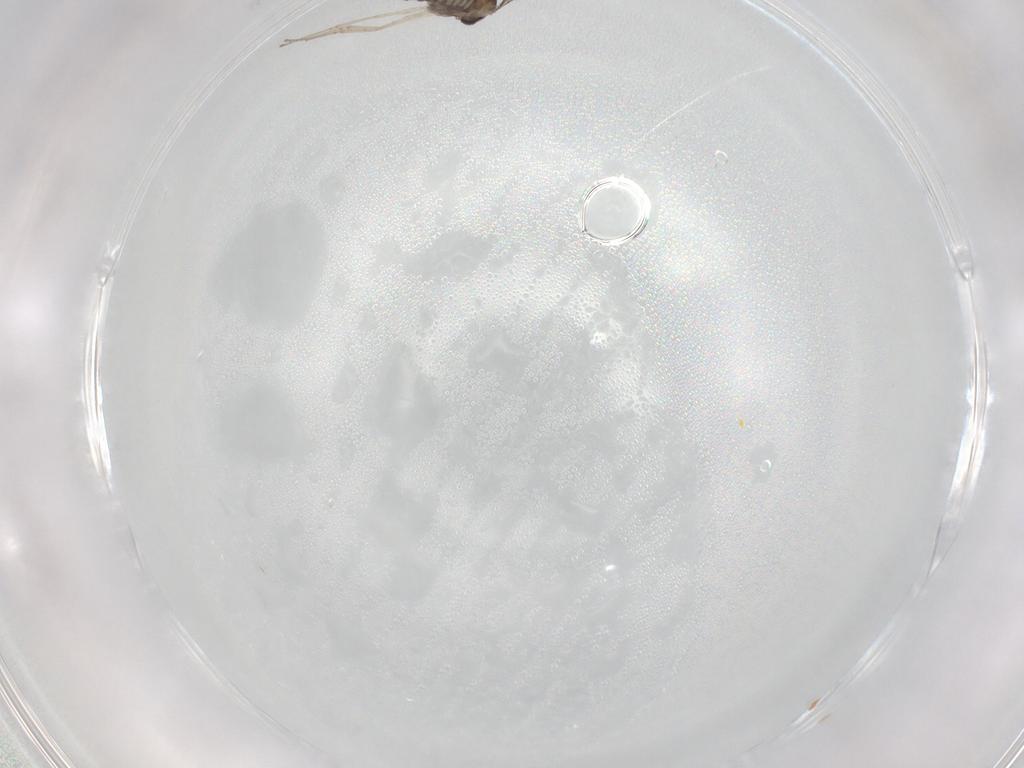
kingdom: Animalia
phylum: Arthropoda
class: Insecta
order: Diptera
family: Cecidomyiidae
